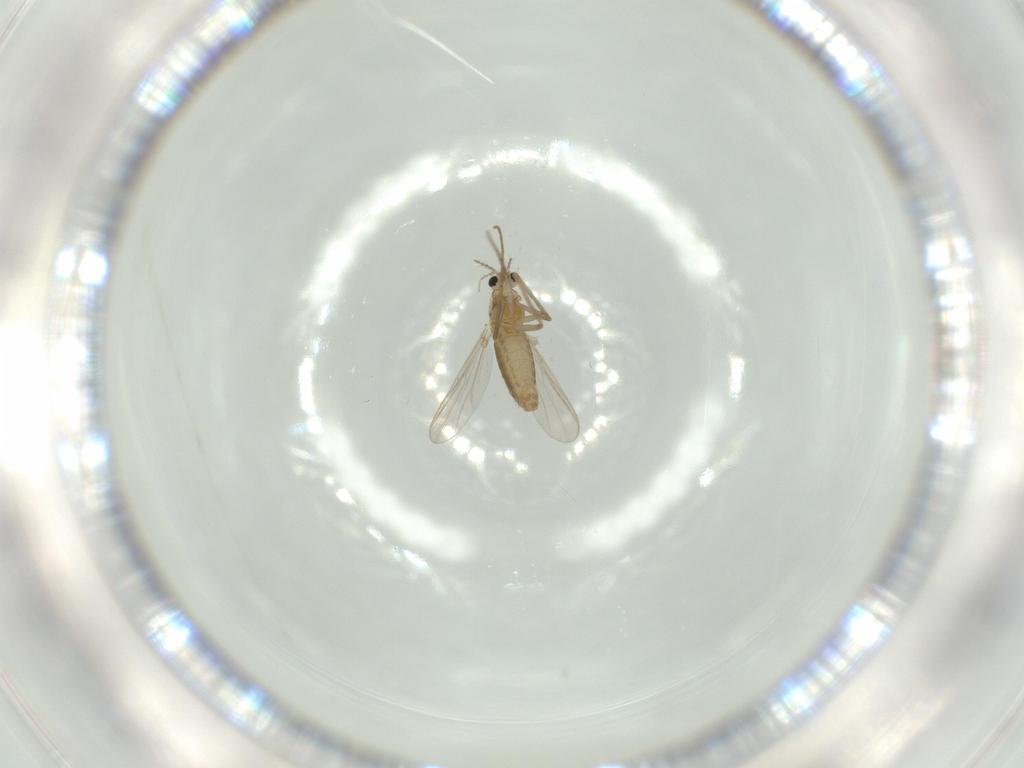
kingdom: Animalia
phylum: Arthropoda
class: Insecta
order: Diptera
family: Chironomidae
